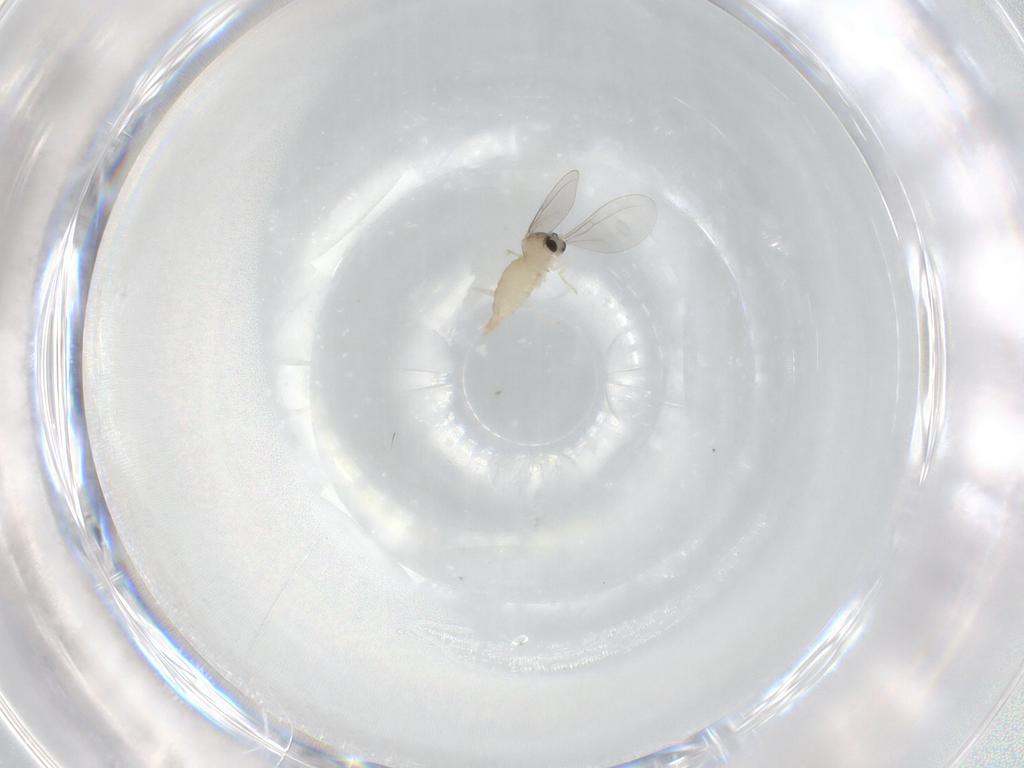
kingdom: Animalia
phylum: Arthropoda
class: Insecta
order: Diptera
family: Cecidomyiidae
